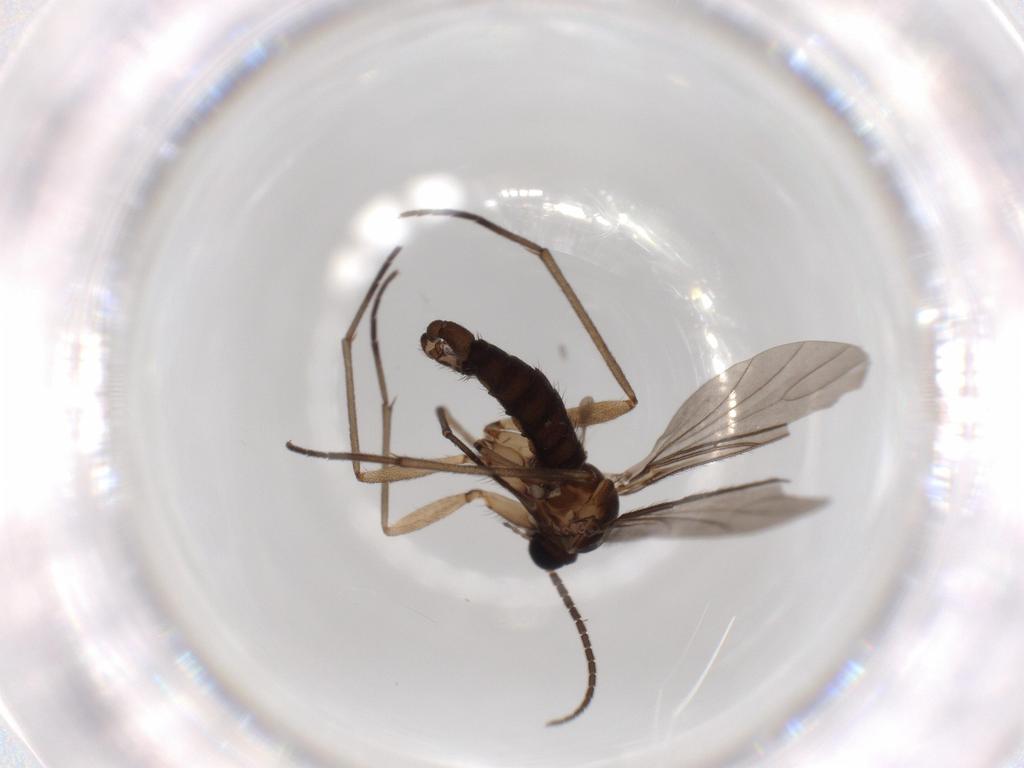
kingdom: Animalia
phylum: Arthropoda
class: Insecta
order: Diptera
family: Sciaridae
